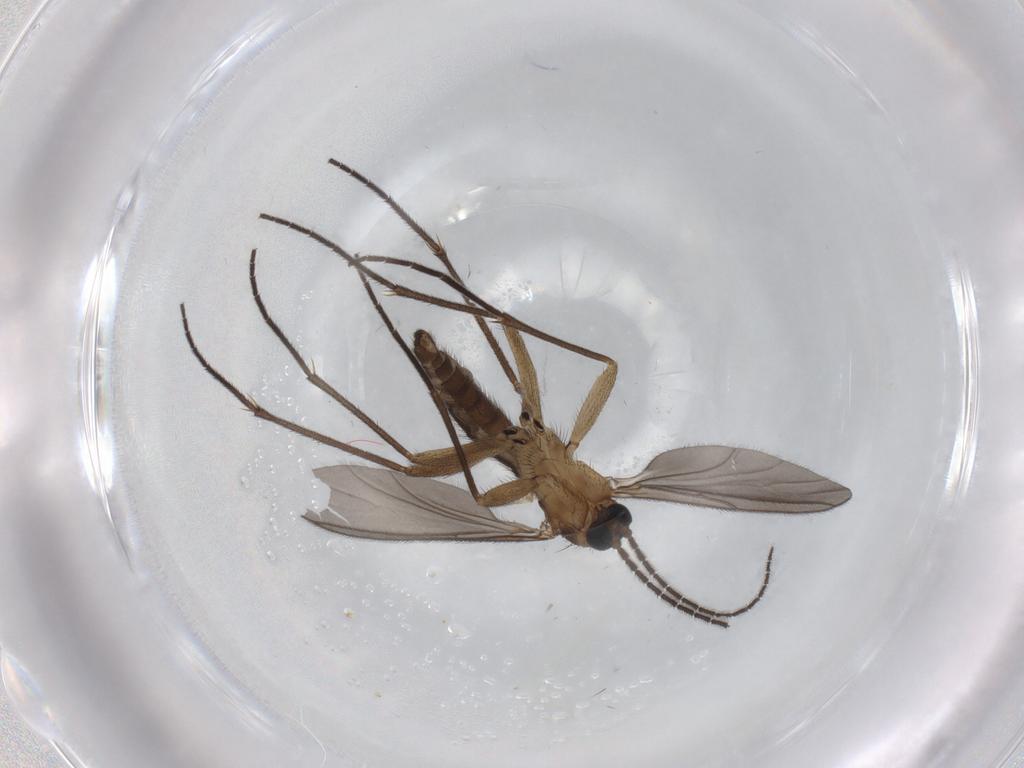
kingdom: Animalia
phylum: Arthropoda
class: Insecta
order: Diptera
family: Sciaridae
